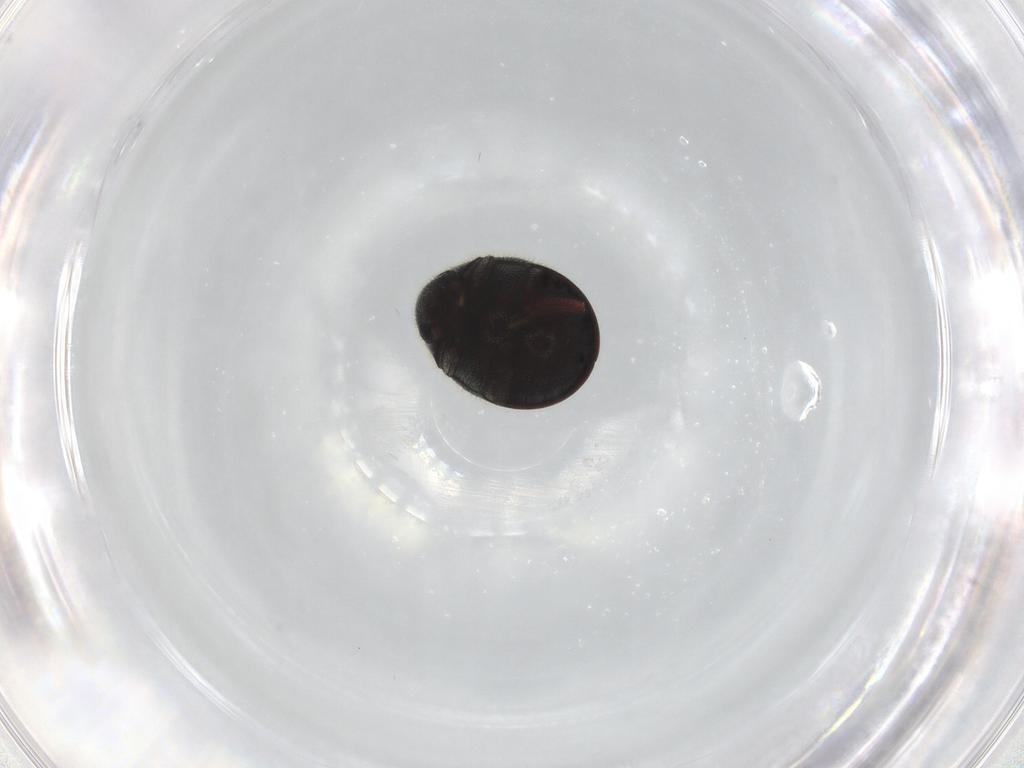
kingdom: Animalia
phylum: Arthropoda
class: Insecta
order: Coleoptera
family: Ptinidae
